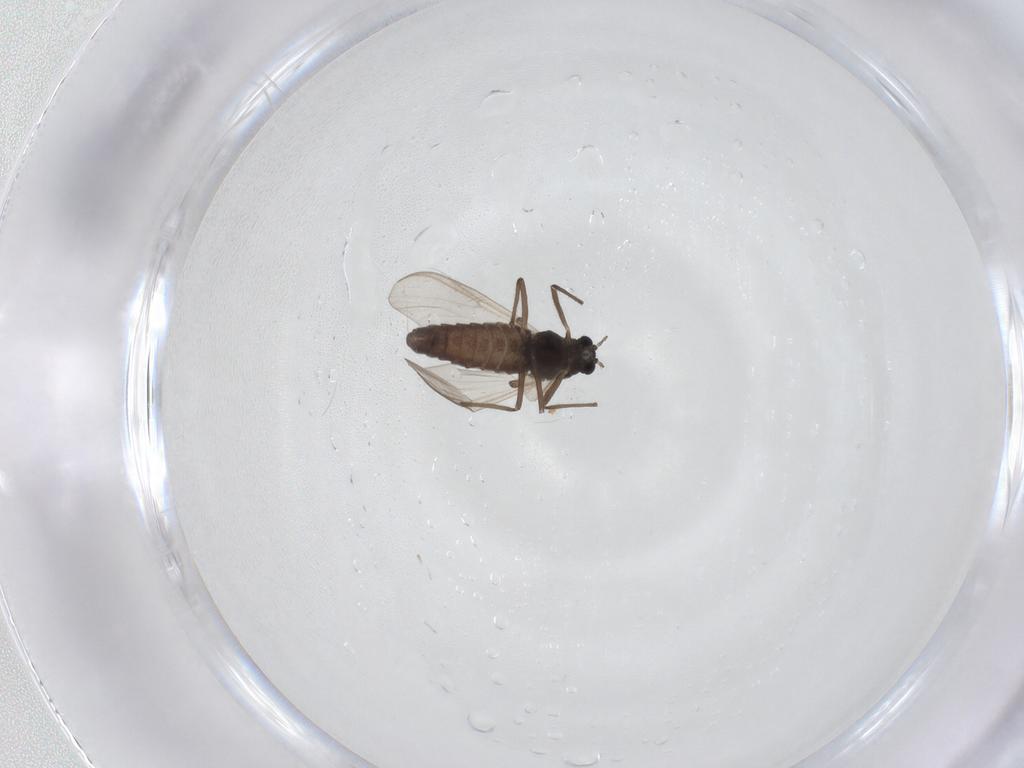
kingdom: Animalia
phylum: Arthropoda
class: Insecta
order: Diptera
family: Chironomidae
